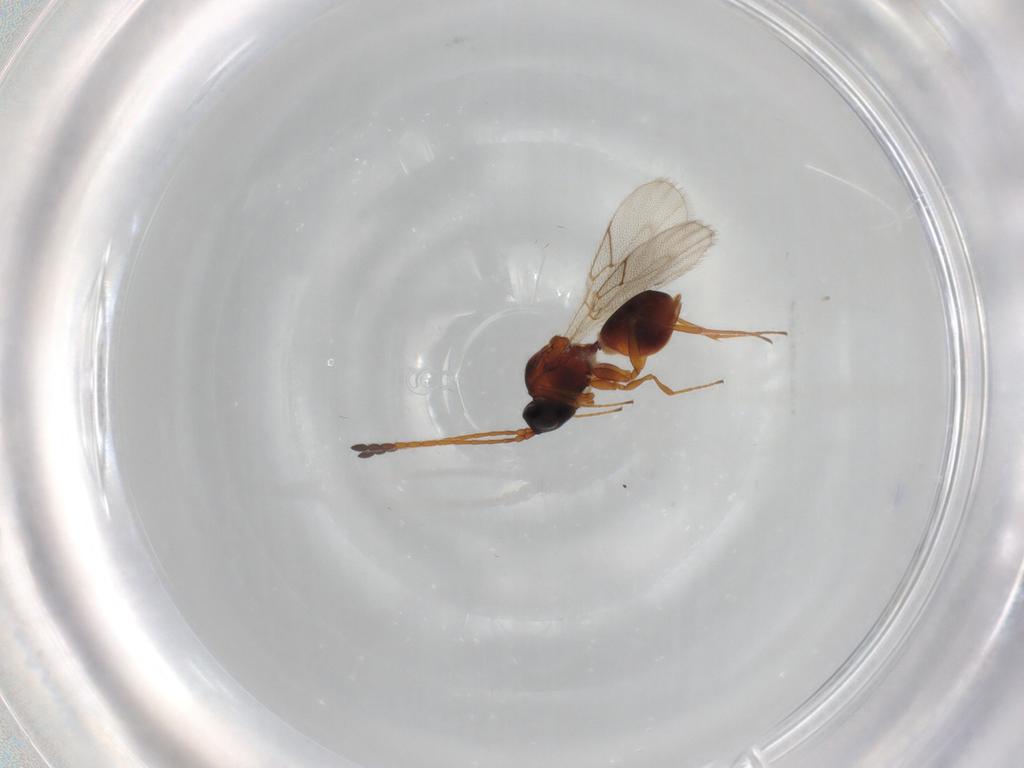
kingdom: Animalia
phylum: Arthropoda
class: Insecta
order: Hymenoptera
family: Figitidae
